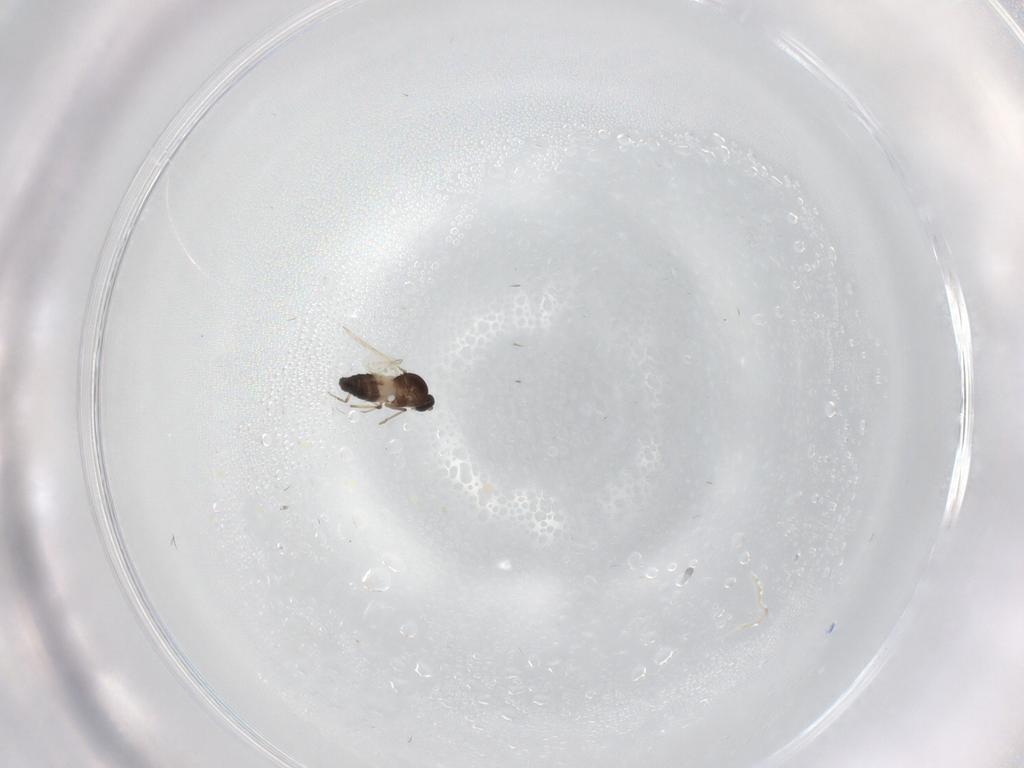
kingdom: Animalia
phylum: Arthropoda
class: Insecta
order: Diptera
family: Ceratopogonidae
